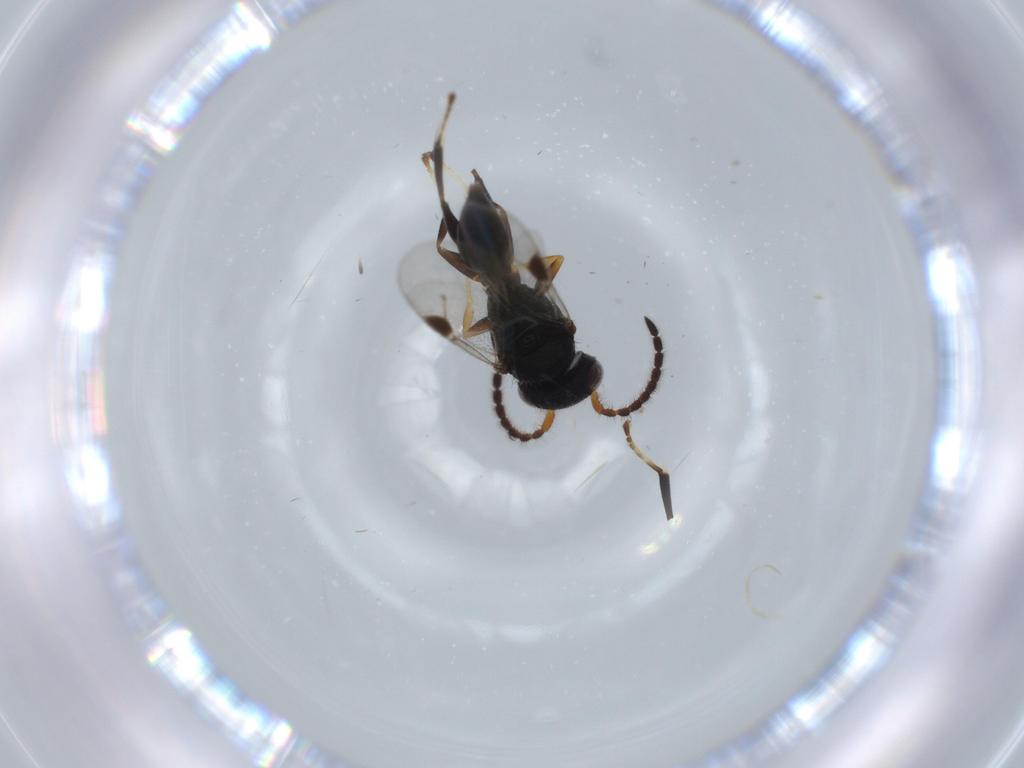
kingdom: Animalia
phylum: Arthropoda
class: Insecta
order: Hymenoptera
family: Dryinidae
